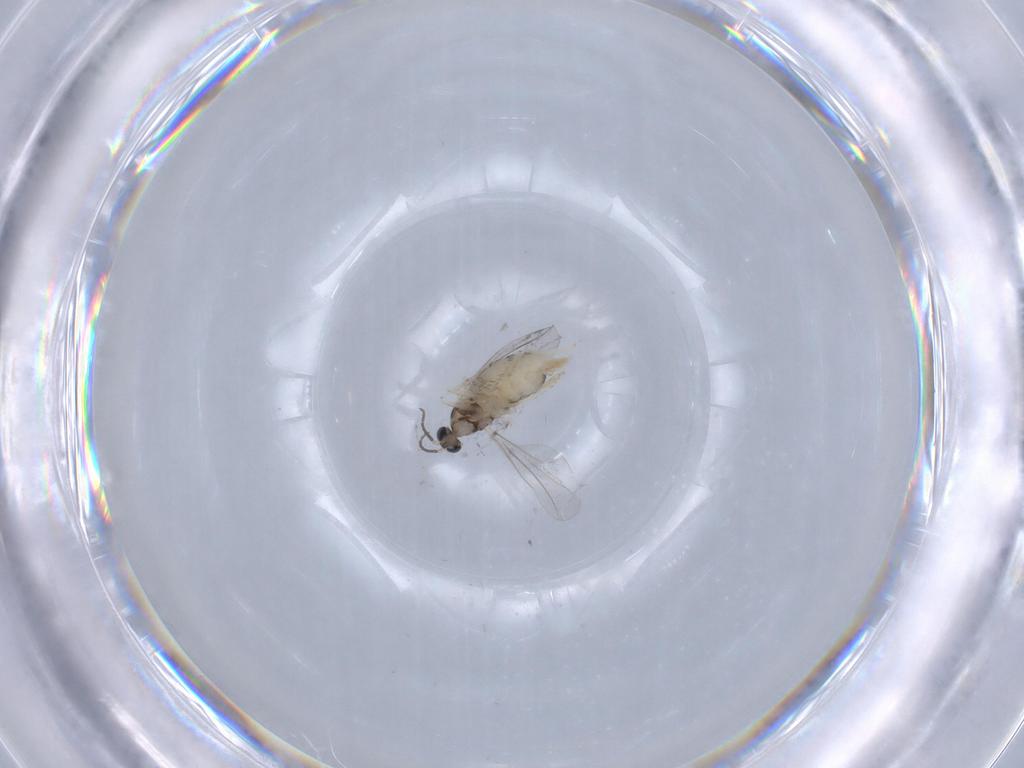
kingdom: Animalia
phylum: Arthropoda
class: Insecta
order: Diptera
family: Cecidomyiidae
